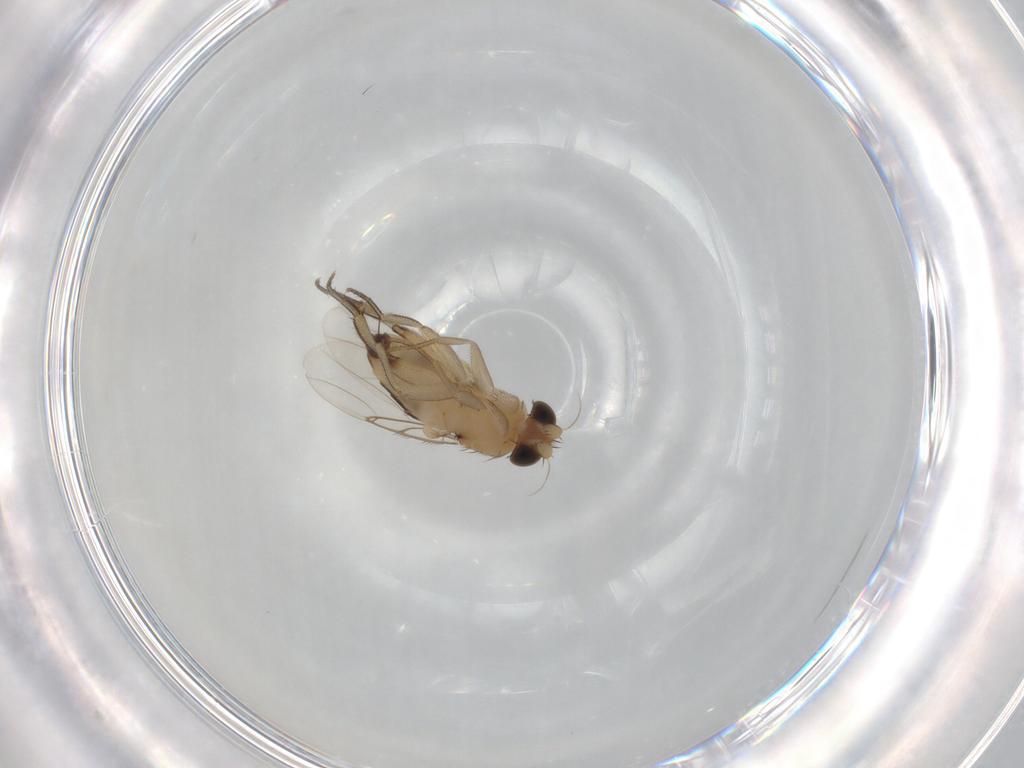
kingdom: Animalia
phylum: Arthropoda
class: Insecta
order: Diptera
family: Phoridae
